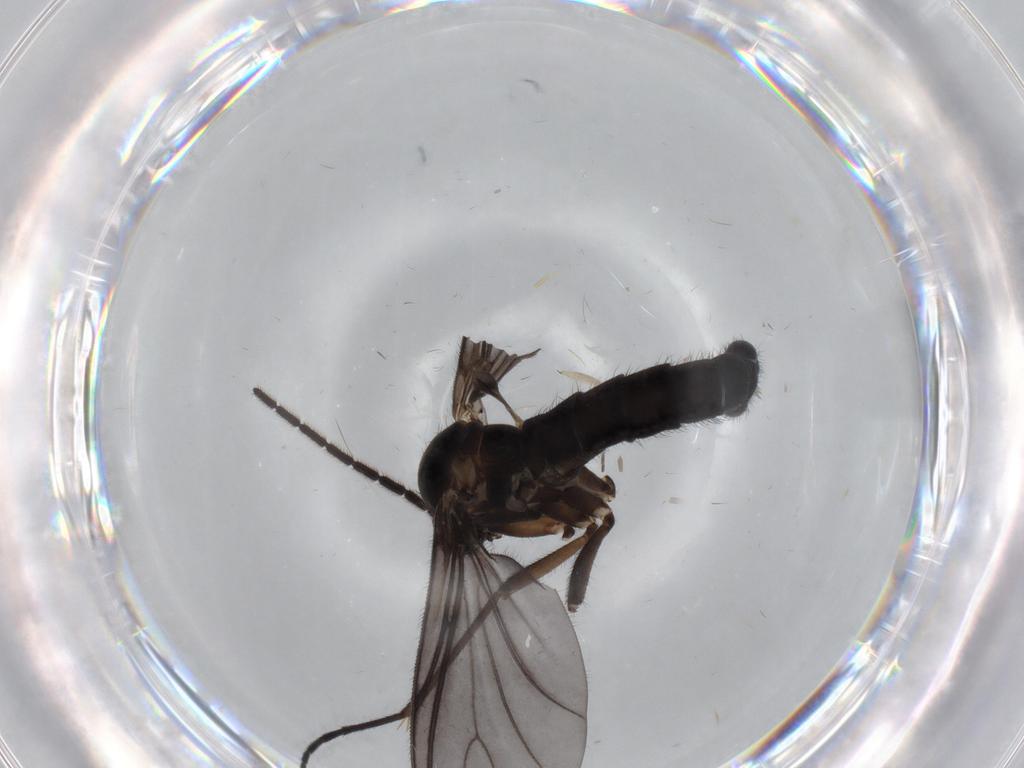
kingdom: Animalia
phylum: Arthropoda
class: Insecta
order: Diptera
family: Sciaridae
